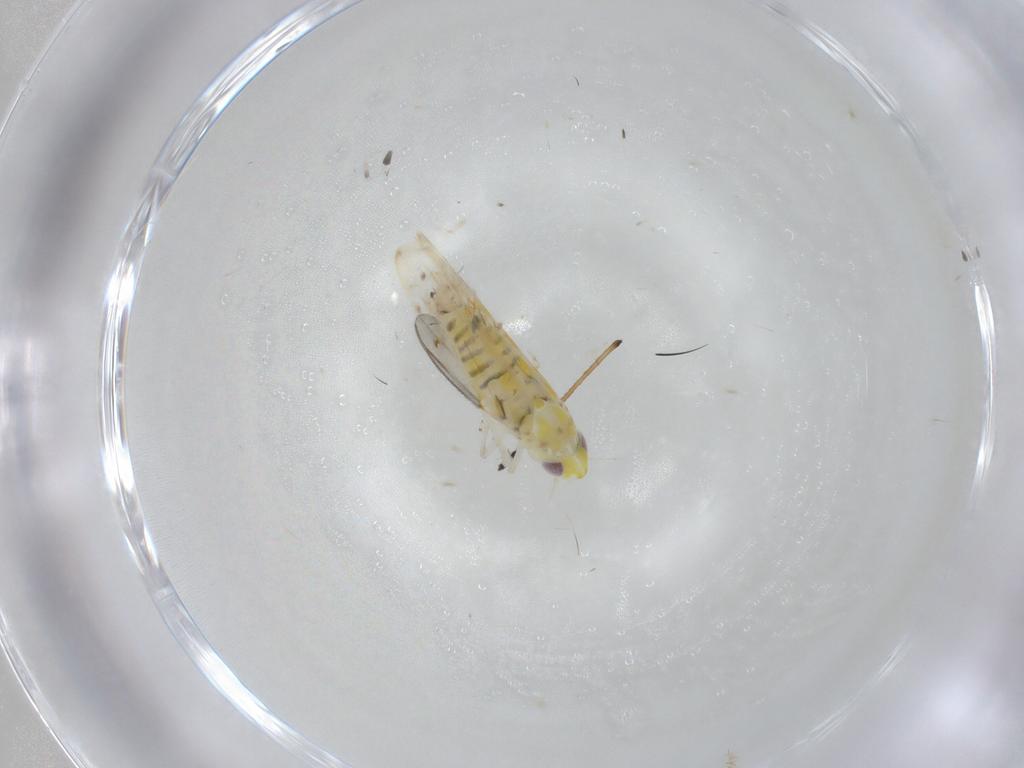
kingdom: Animalia
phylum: Arthropoda
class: Insecta
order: Hemiptera
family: Aphididae
